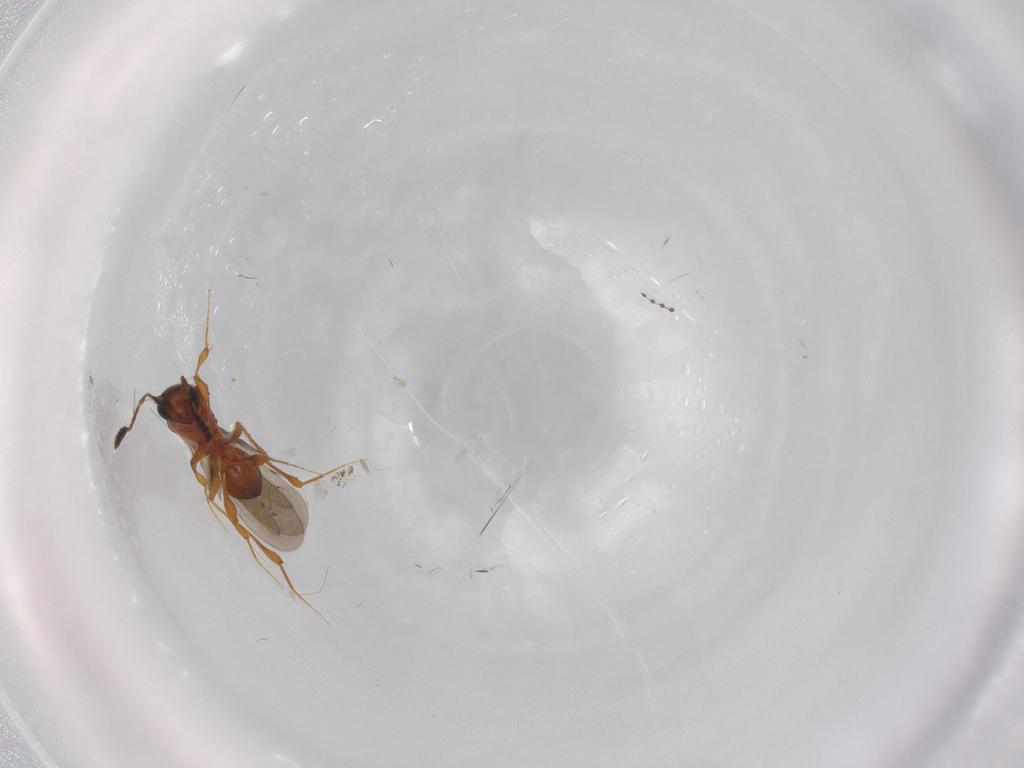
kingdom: Animalia
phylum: Arthropoda
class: Insecta
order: Hymenoptera
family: Platygastridae
